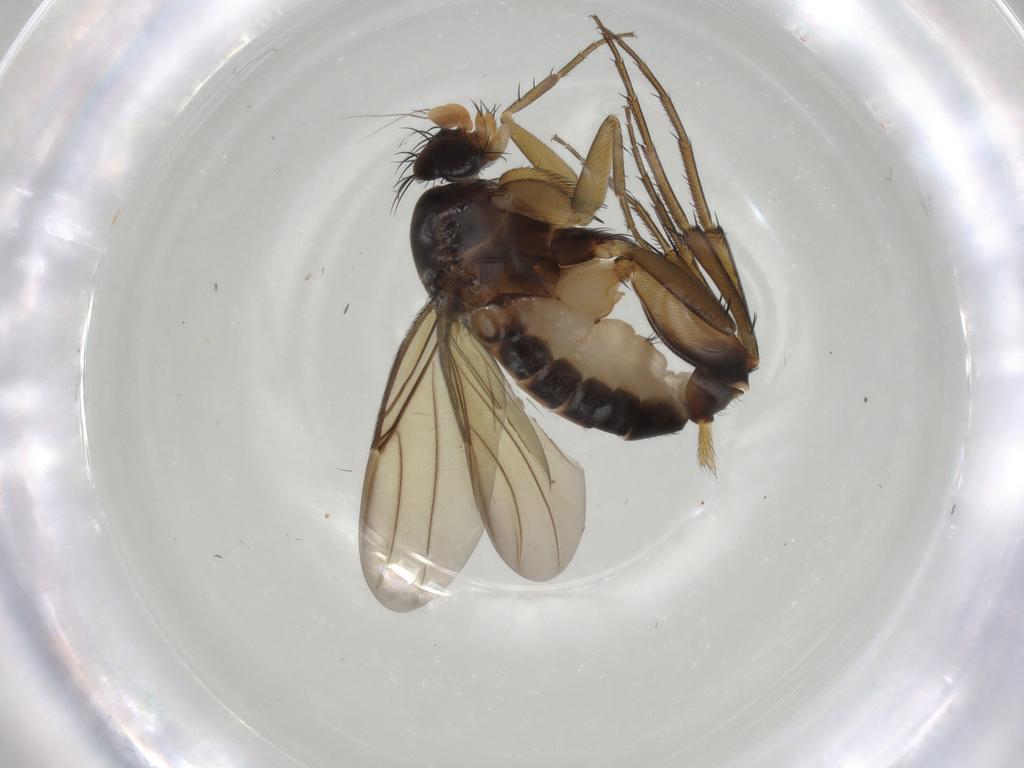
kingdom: Animalia
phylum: Arthropoda
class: Insecta
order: Diptera
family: Phoridae
